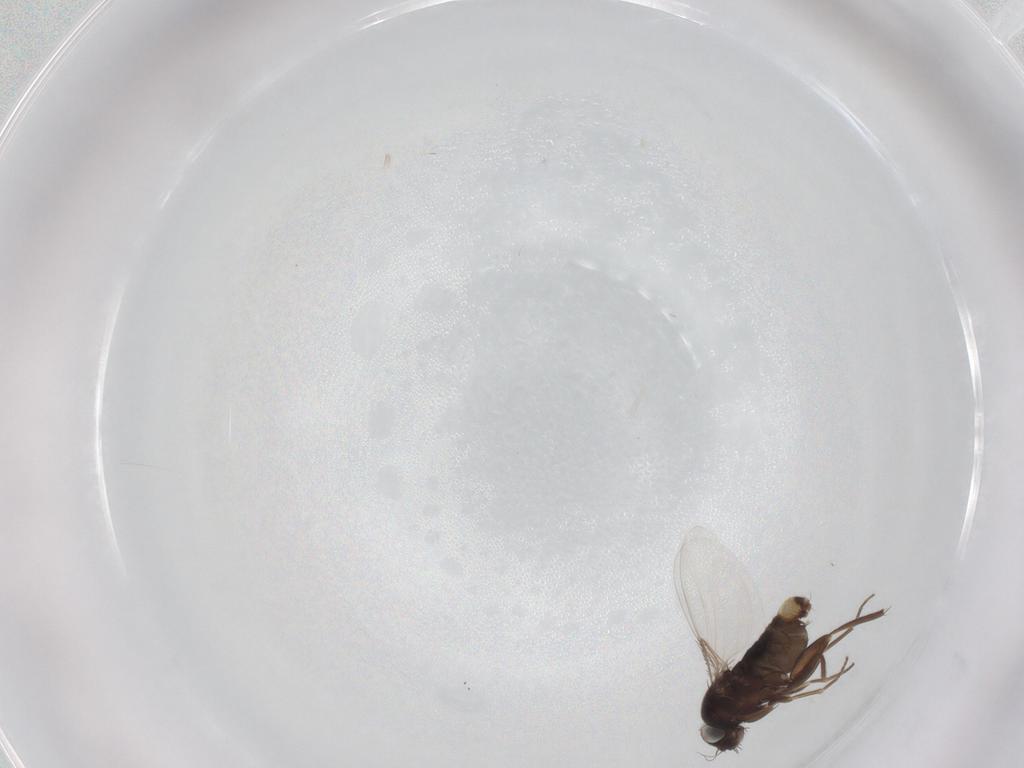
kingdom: Animalia
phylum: Arthropoda
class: Insecta
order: Diptera
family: Phoridae
